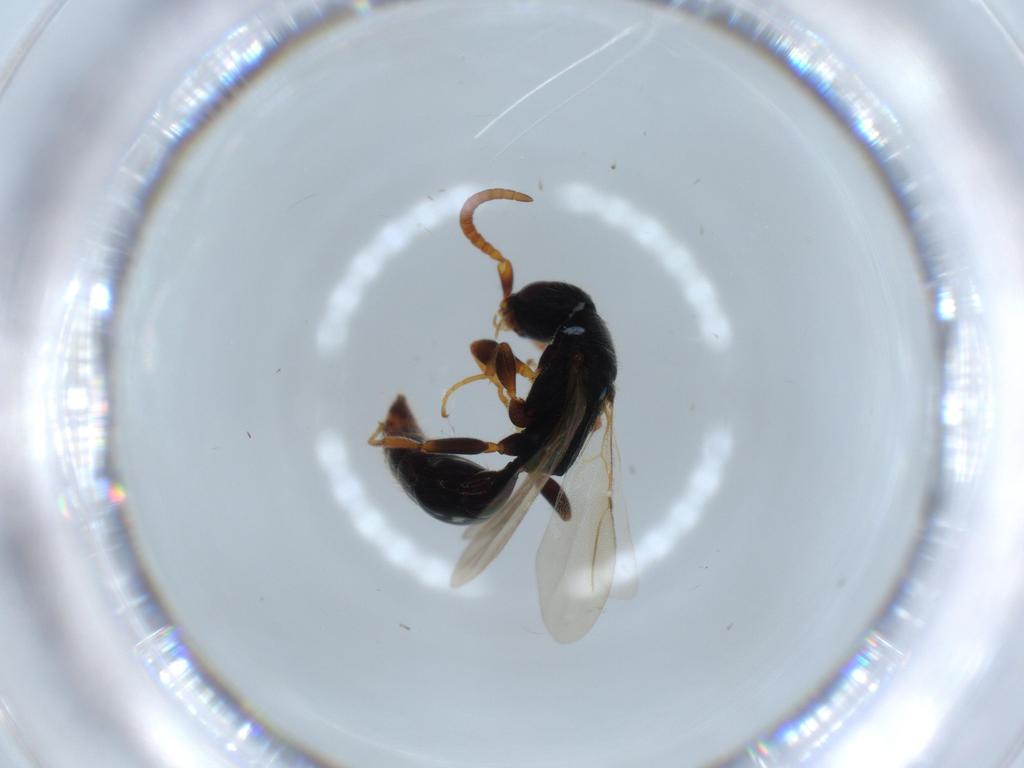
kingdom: Animalia
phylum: Arthropoda
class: Insecta
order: Hymenoptera
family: Bethylidae
